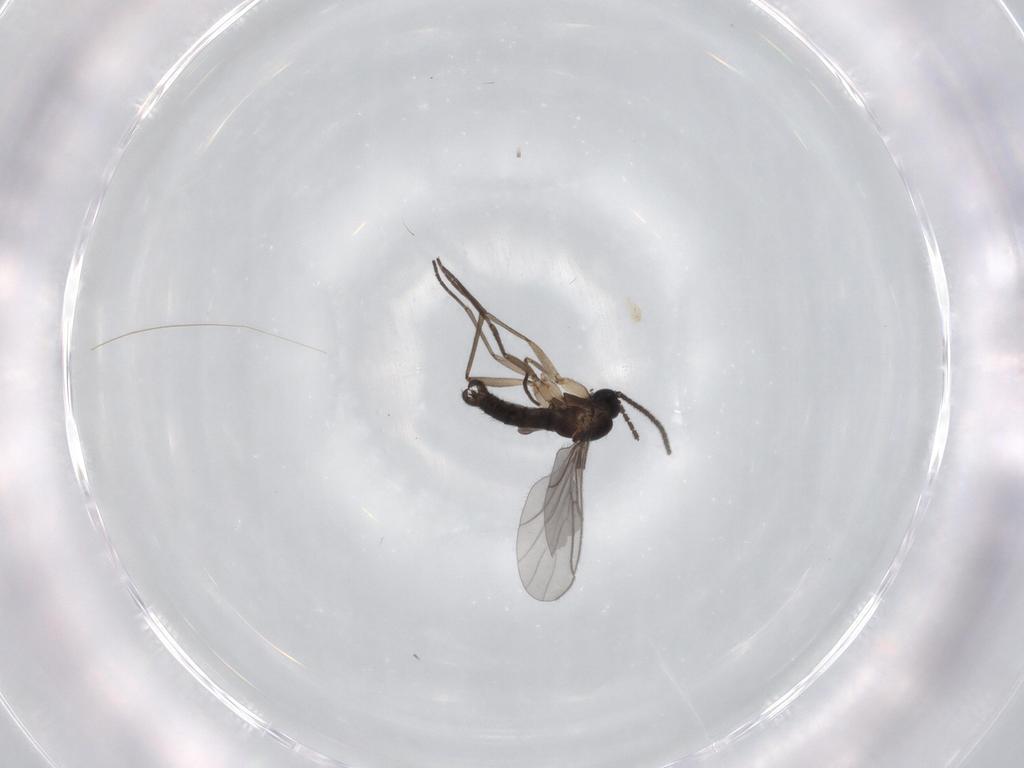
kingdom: Animalia
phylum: Arthropoda
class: Insecta
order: Diptera
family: Sciaridae
